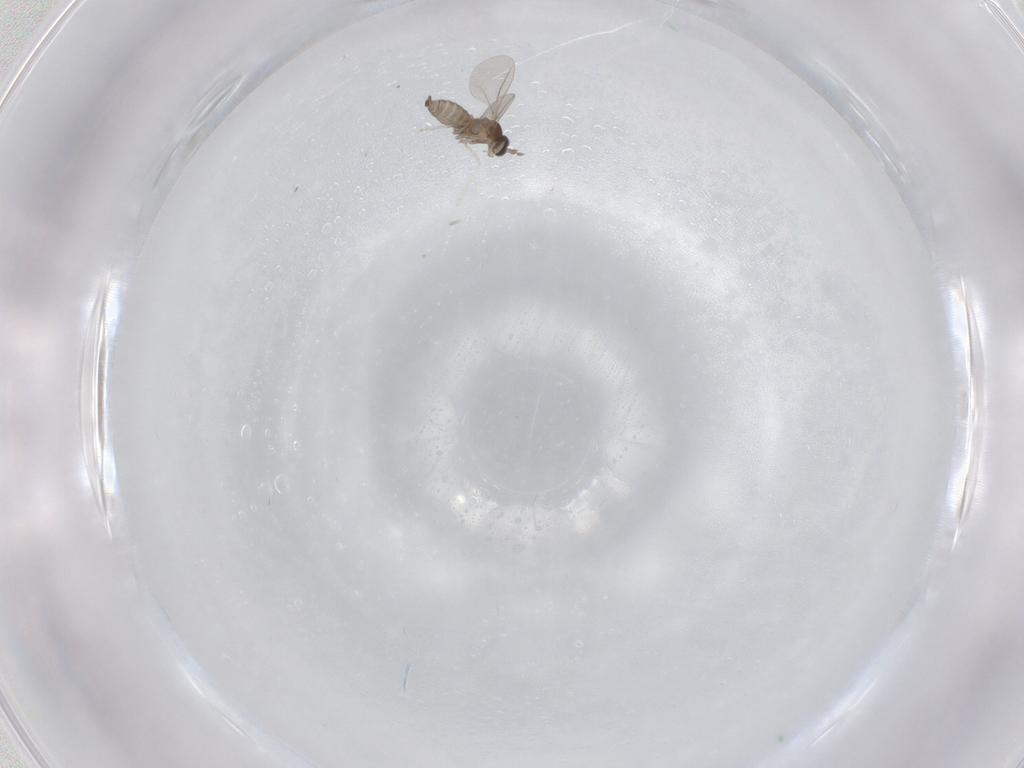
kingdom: Animalia
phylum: Arthropoda
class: Insecta
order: Diptera
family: Cecidomyiidae
